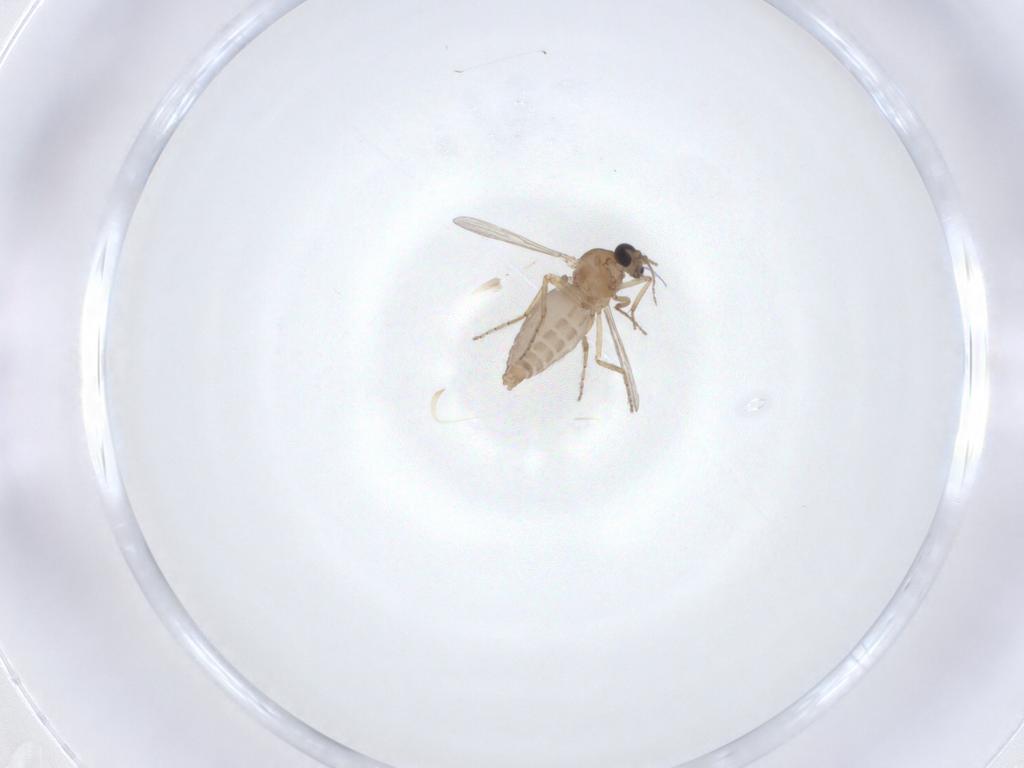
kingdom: Animalia
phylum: Arthropoda
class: Insecta
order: Diptera
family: Ceratopogonidae
